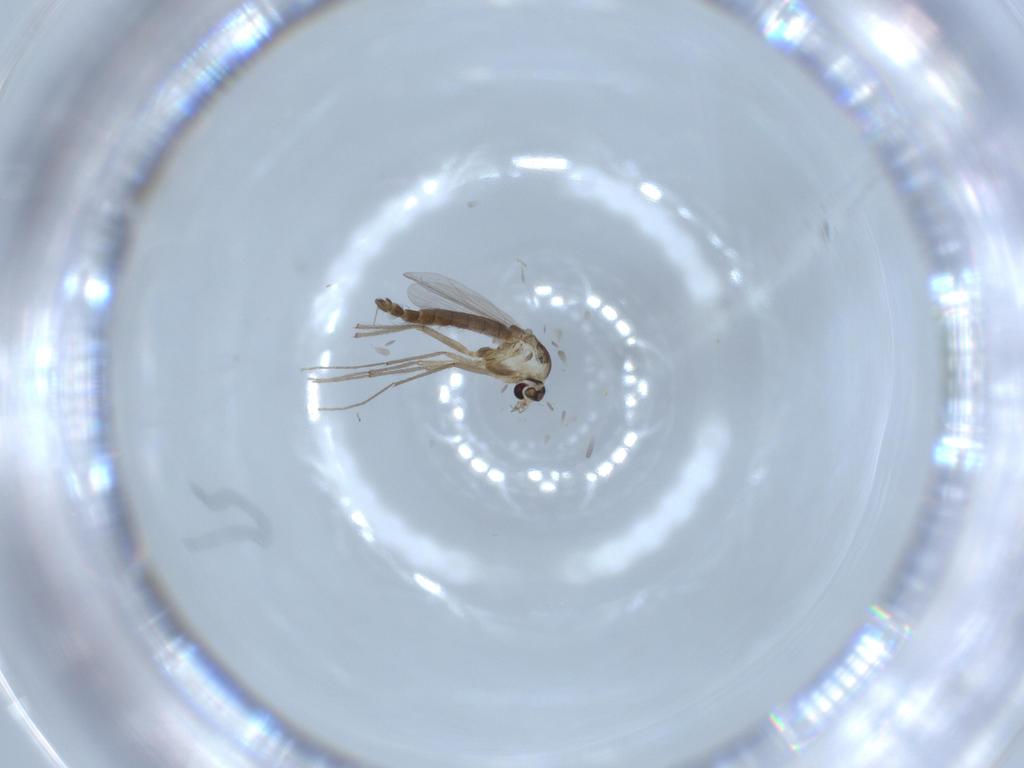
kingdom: Animalia
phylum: Arthropoda
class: Insecta
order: Diptera
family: Chironomidae
